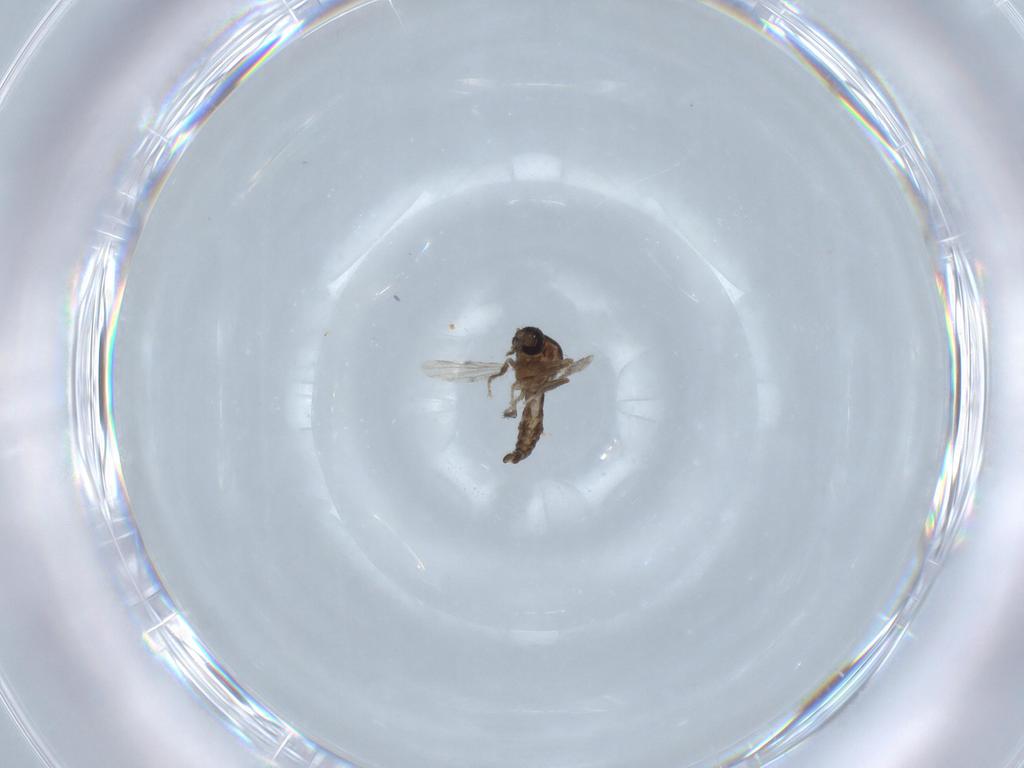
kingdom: Animalia
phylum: Arthropoda
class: Insecta
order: Diptera
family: Ceratopogonidae
